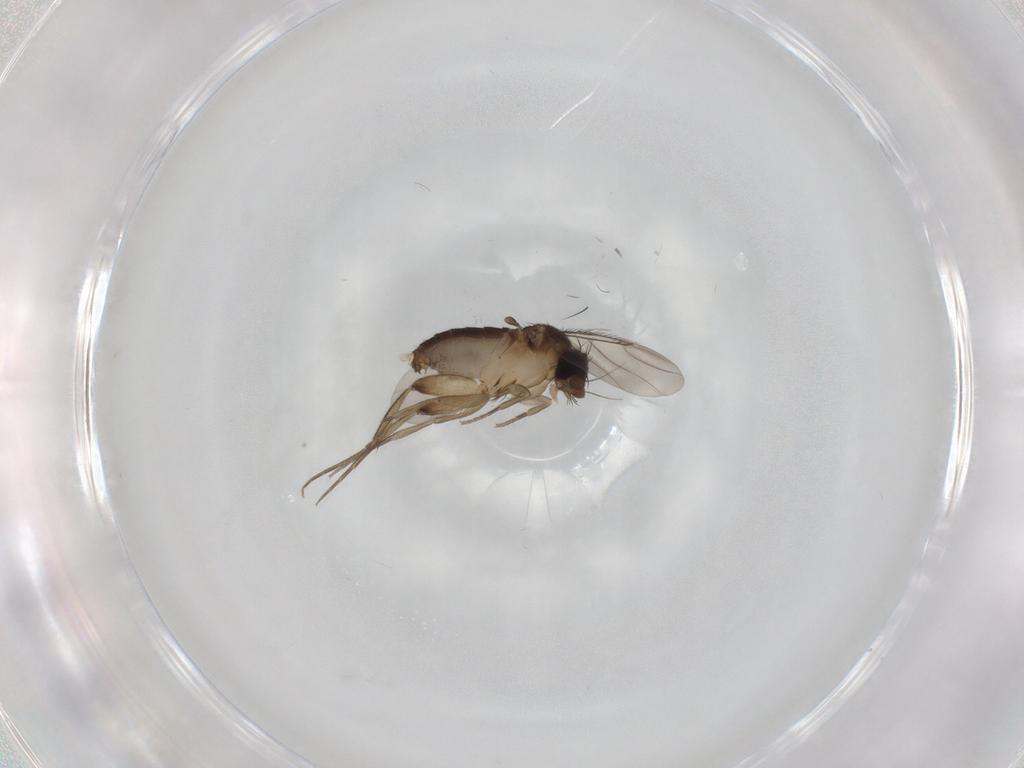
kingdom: Animalia
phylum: Arthropoda
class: Insecta
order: Diptera
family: Phoridae
